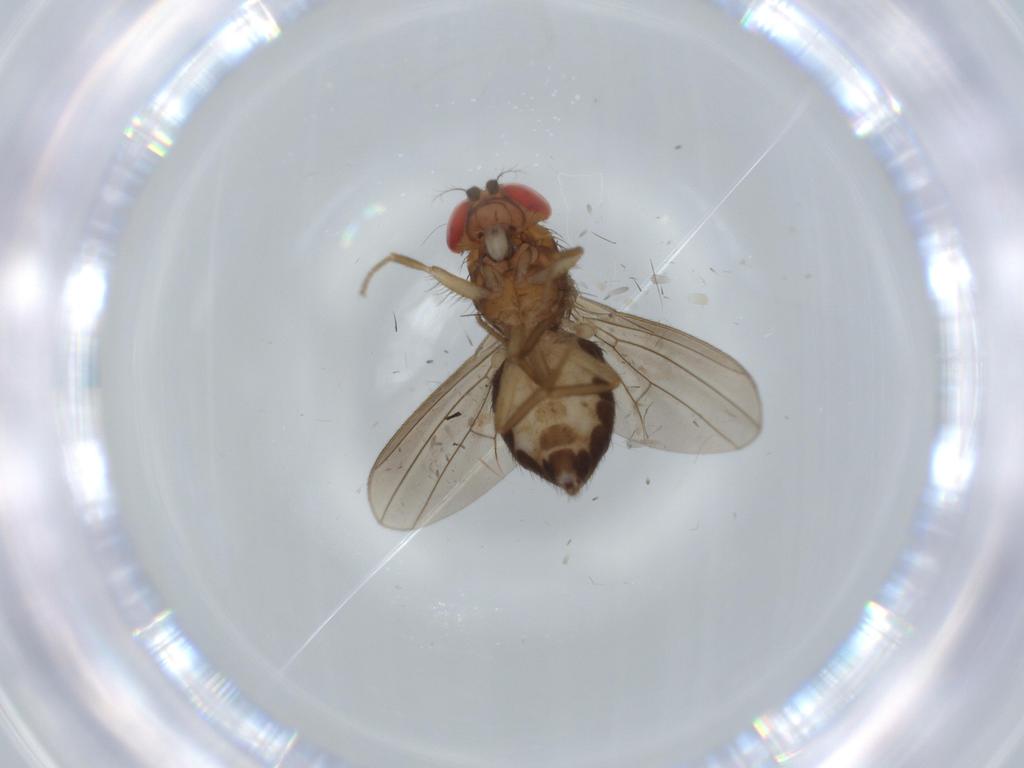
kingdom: Animalia
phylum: Arthropoda
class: Insecta
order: Diptera
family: Drosophilidae
